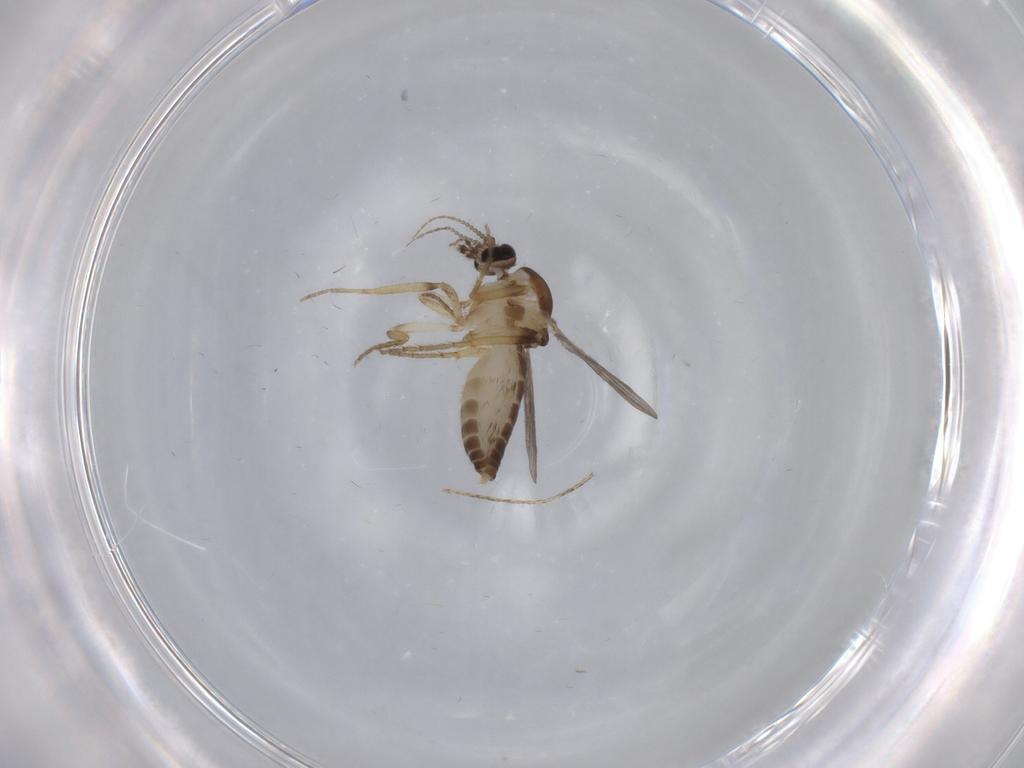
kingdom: Animalia
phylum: Arthropoda
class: Insecta
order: Diptera
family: Ceratopogonidae
